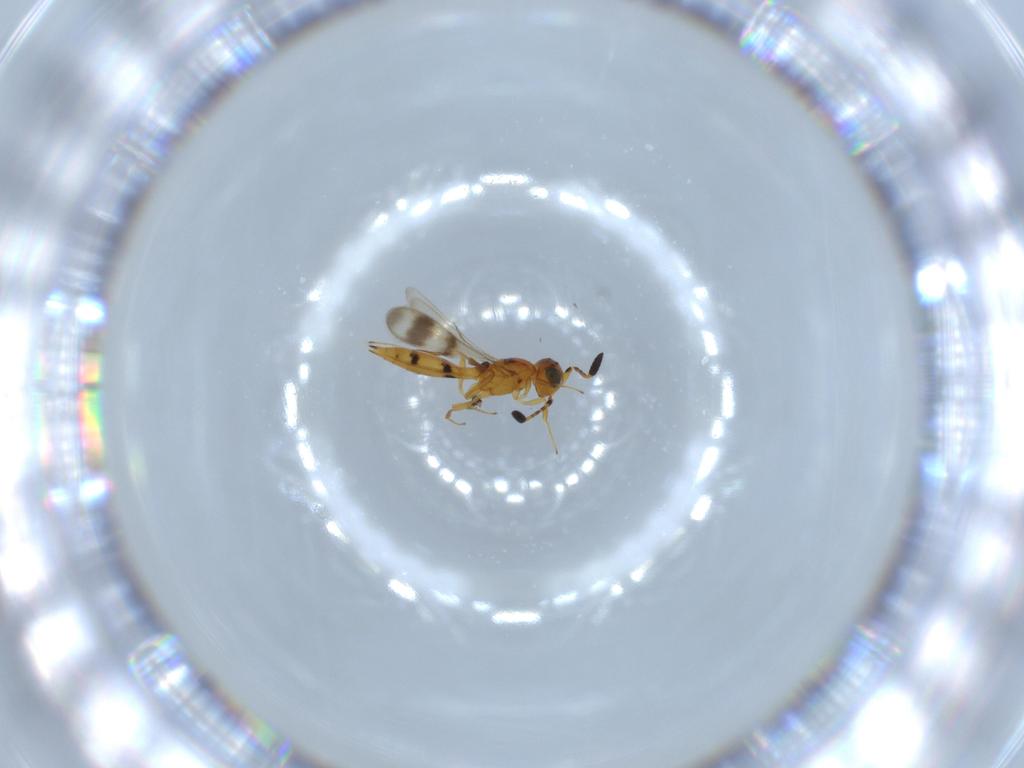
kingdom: Animalia
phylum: Arthropoda
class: Insecta
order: Hymenoptera
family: Scelionidae
